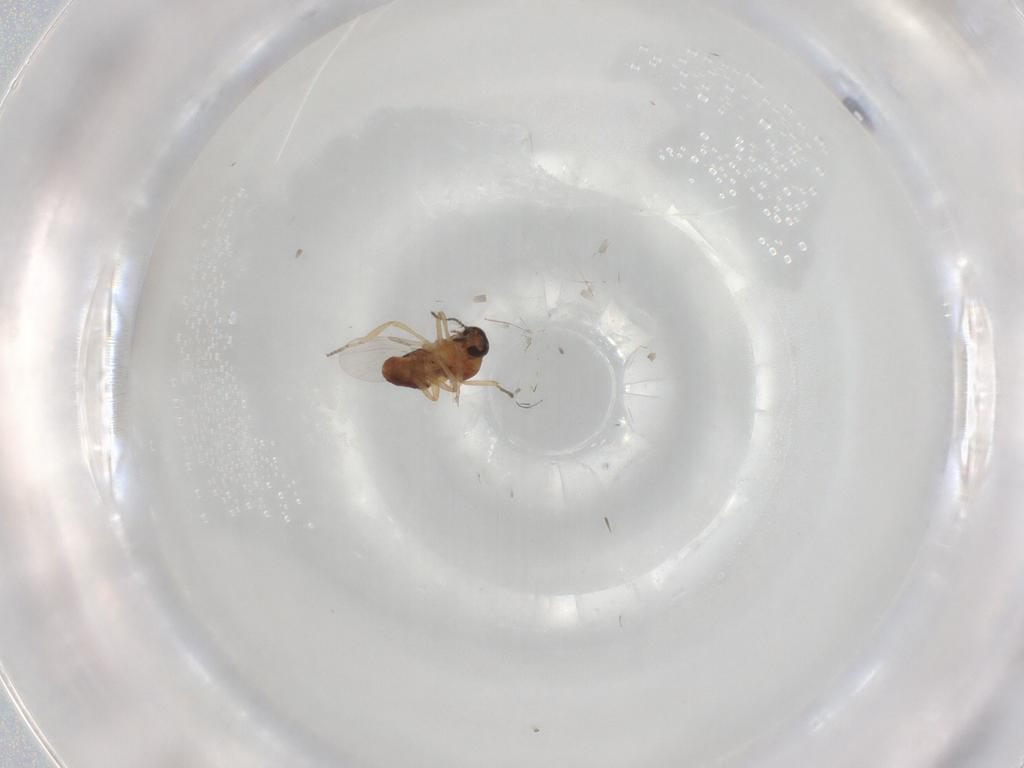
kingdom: Animalia
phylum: Arthropoda
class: Insecta
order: Diptera
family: Ceratopogonidae
